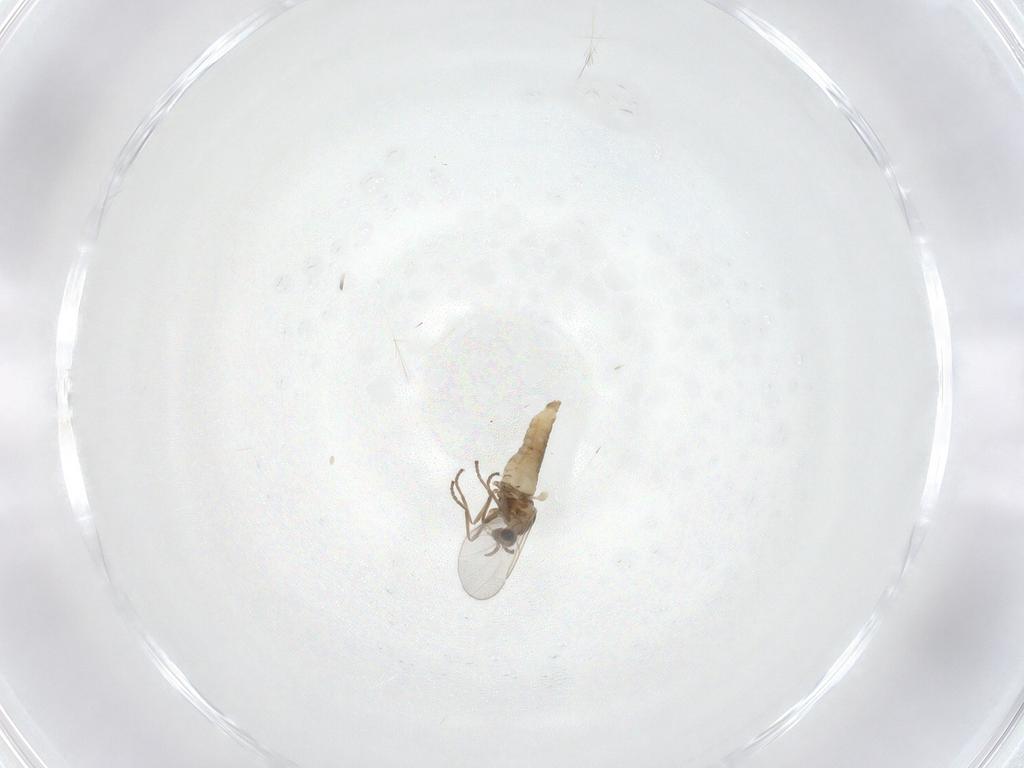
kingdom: Animalia
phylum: Arthropoda
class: Insecta
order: Diptera
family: Cecidomyiidae
